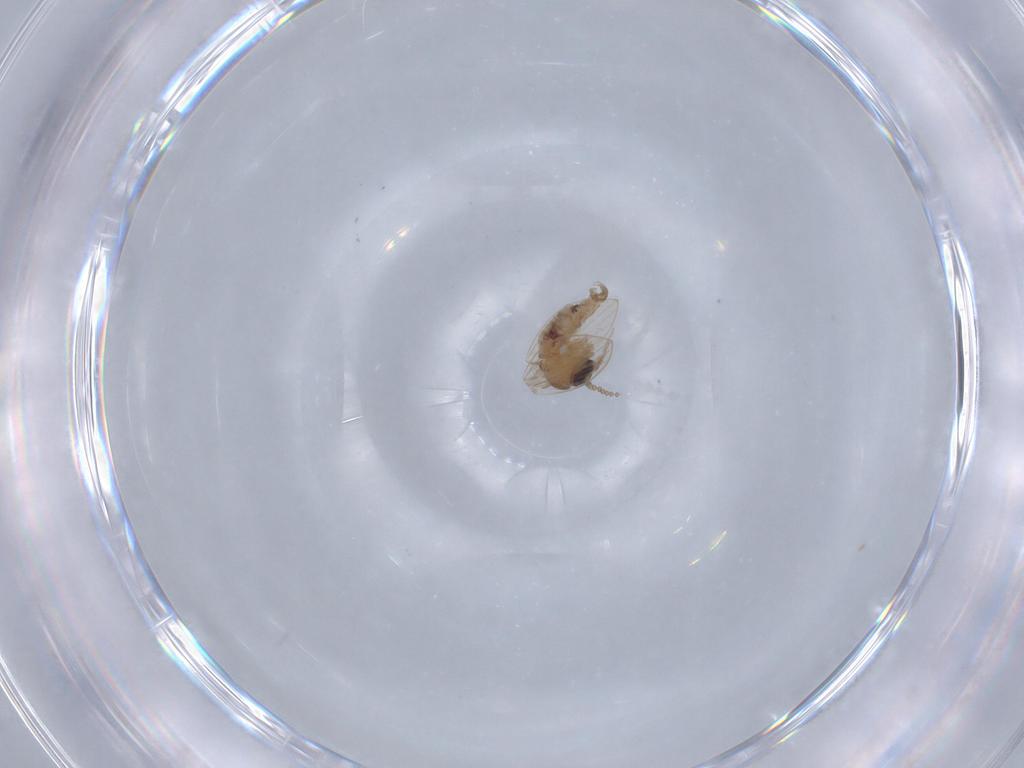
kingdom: Animalia
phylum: Arthropoda
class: Insecta
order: Diptera
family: Psychodidae
